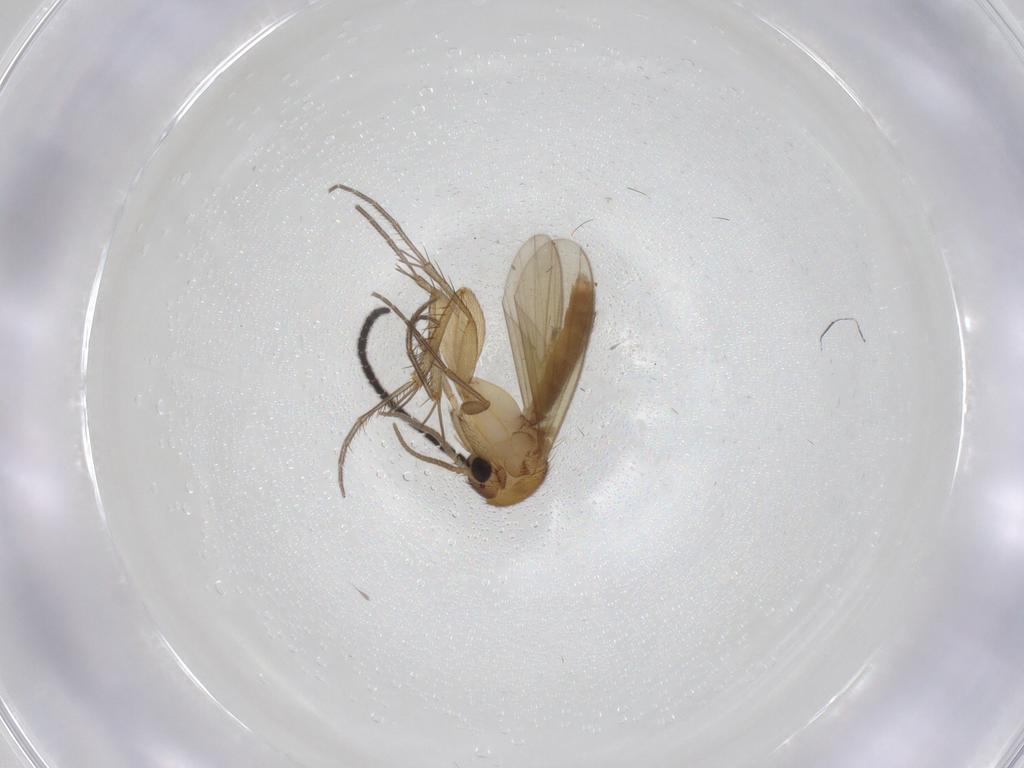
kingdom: Animalia
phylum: Arthropoda
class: Insecta
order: Diptera
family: Sciaridae
